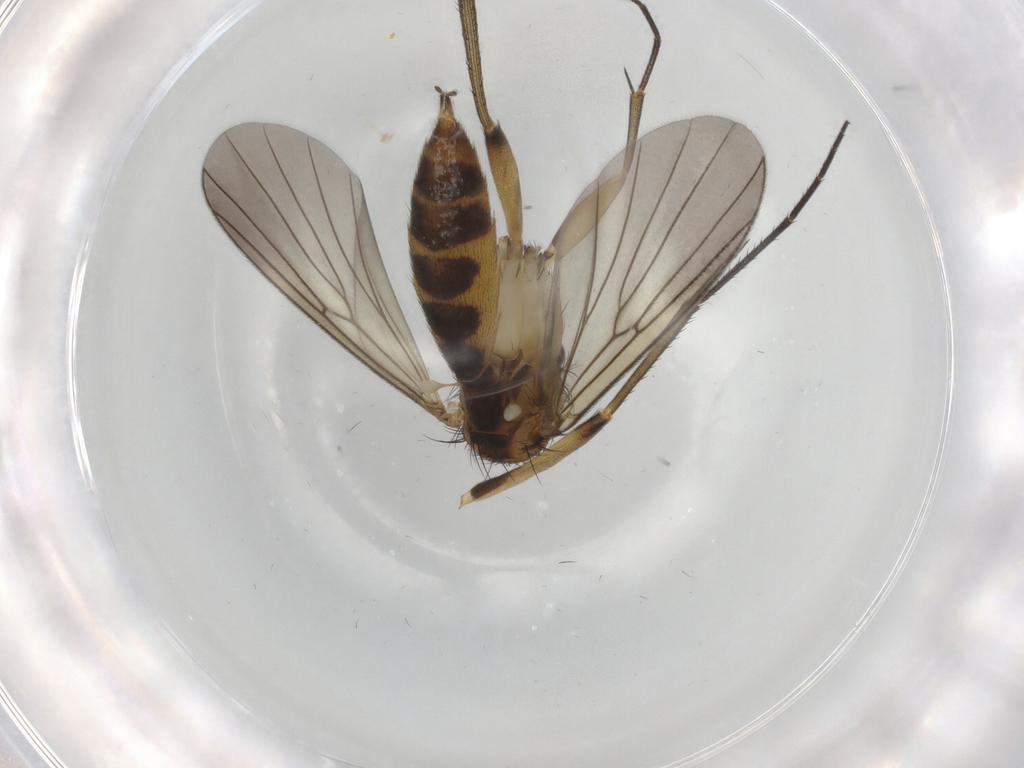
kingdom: Animalia
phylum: Arthropoda
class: Insecta
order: Diptera
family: Mycetophilidae
